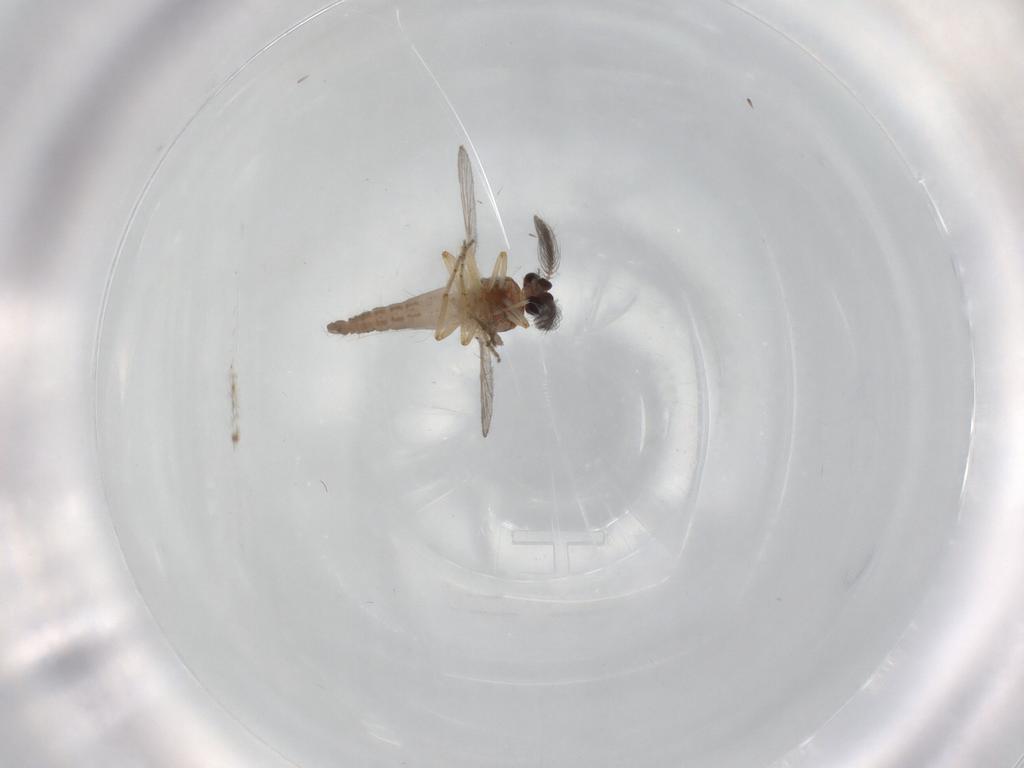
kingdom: Animalia
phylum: Arthropoda
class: Insecta
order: Diptera
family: Ceratopogonidae
